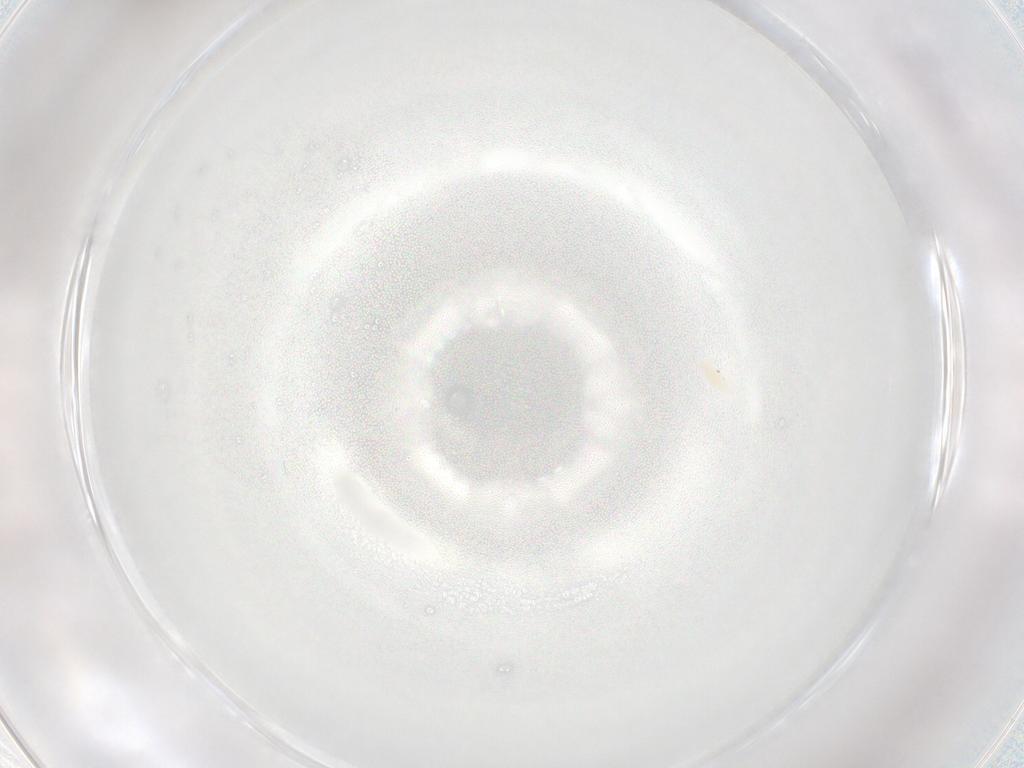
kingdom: Animalia
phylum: Arthropoda
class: Arachnida
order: Trombidiformes
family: Eupodidae
